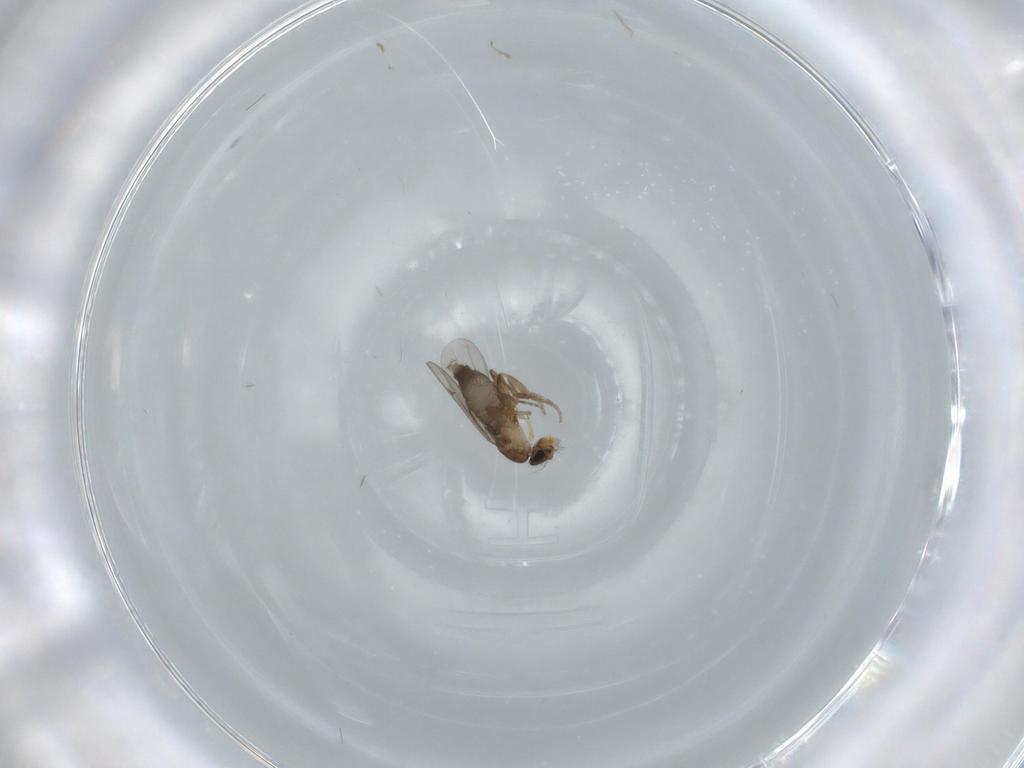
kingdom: Animalia
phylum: Arthropoda
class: Insecta
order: Diptera
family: Phoridae
